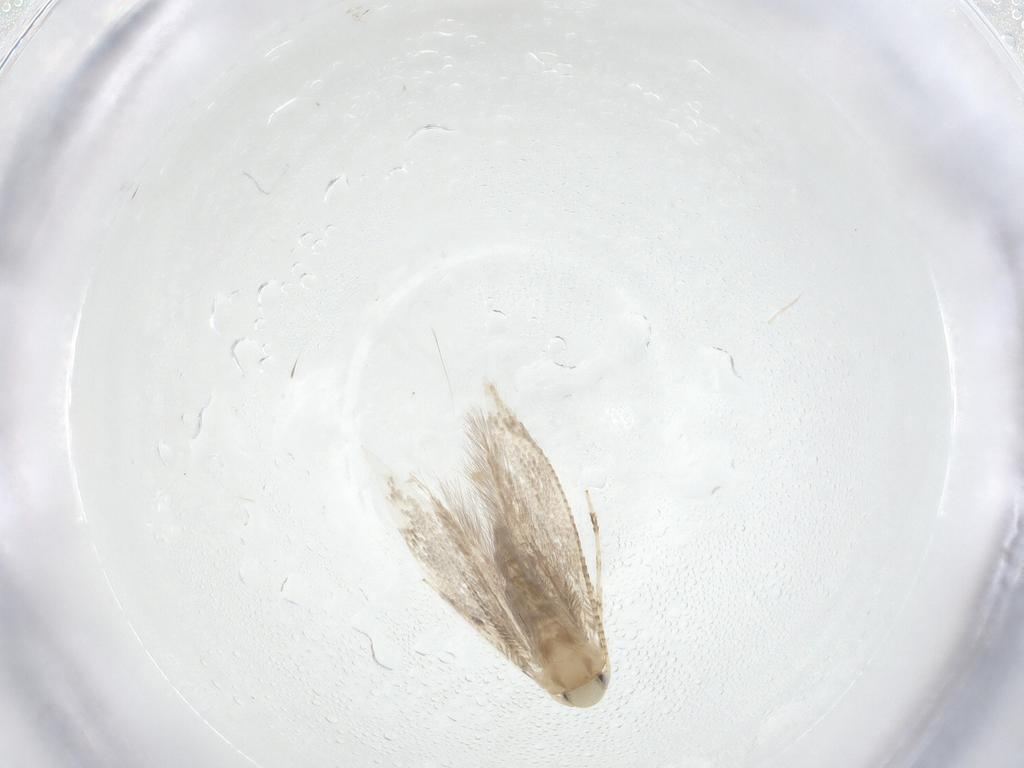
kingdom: Animalia
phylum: Arthropoda
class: Insecta
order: Lepidoptera
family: Gracillariidae
